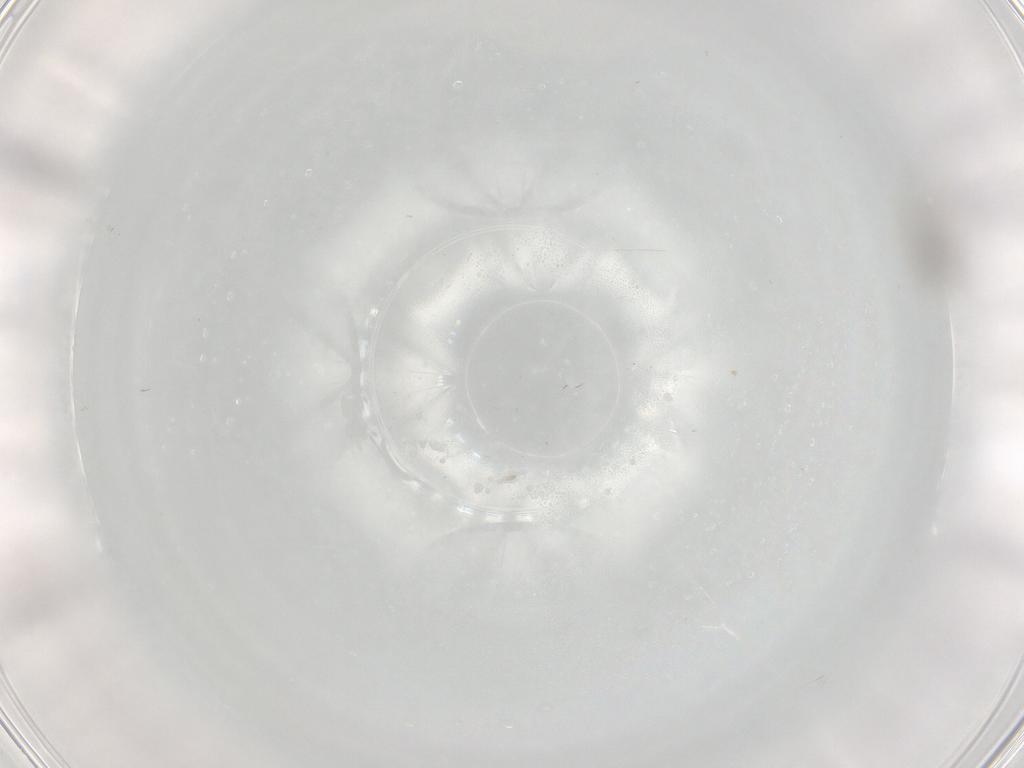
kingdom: Animalia
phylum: Arthropoda
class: Insecta
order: Diptera
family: Cecidomyiidae
